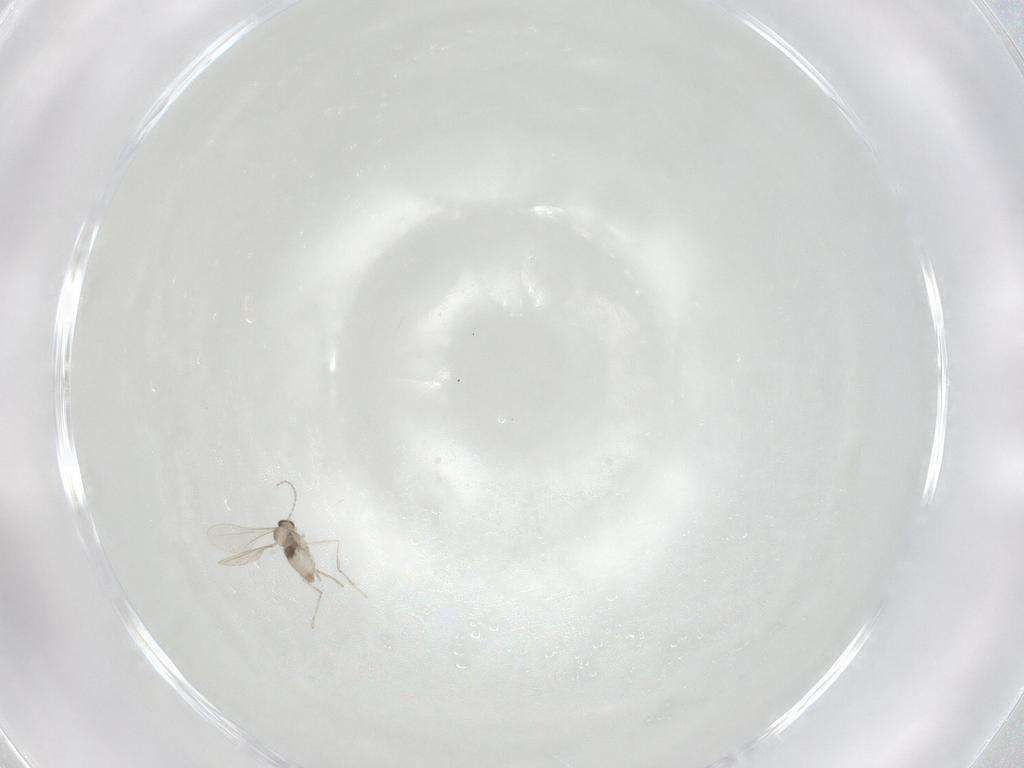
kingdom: Animalia
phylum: Arthropoda
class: Insecta
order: Diptera
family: Cecidomyiidae
